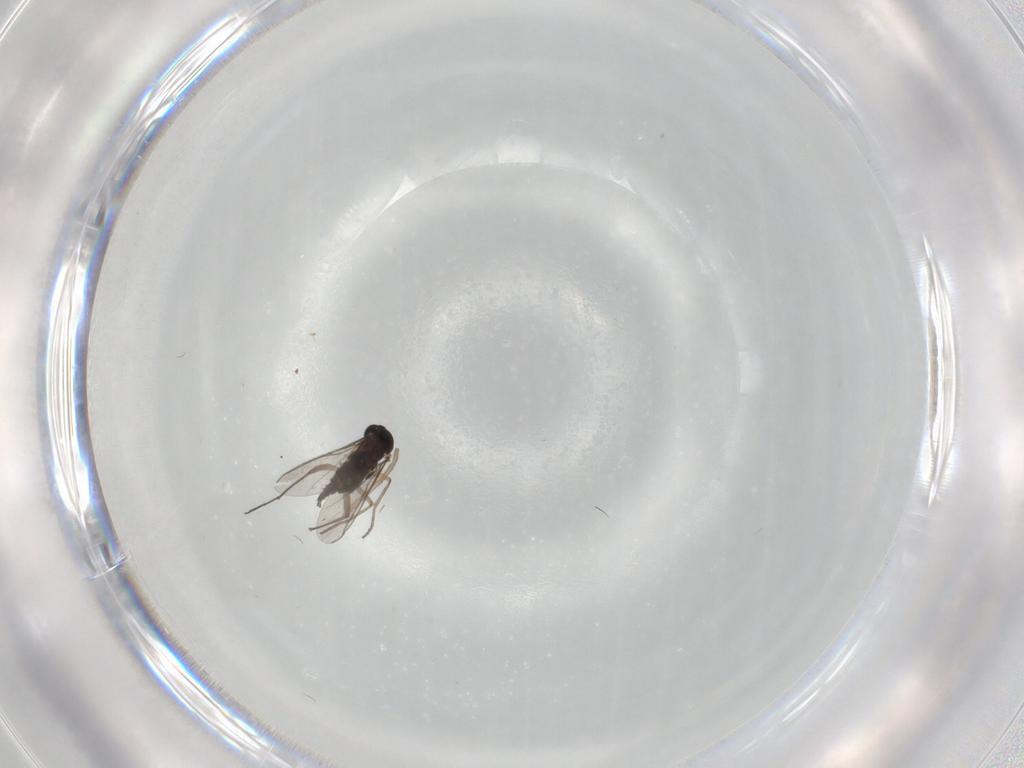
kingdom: Animalia
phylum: Arthropoda
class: Insecta
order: Diptera
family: Sciaridae
